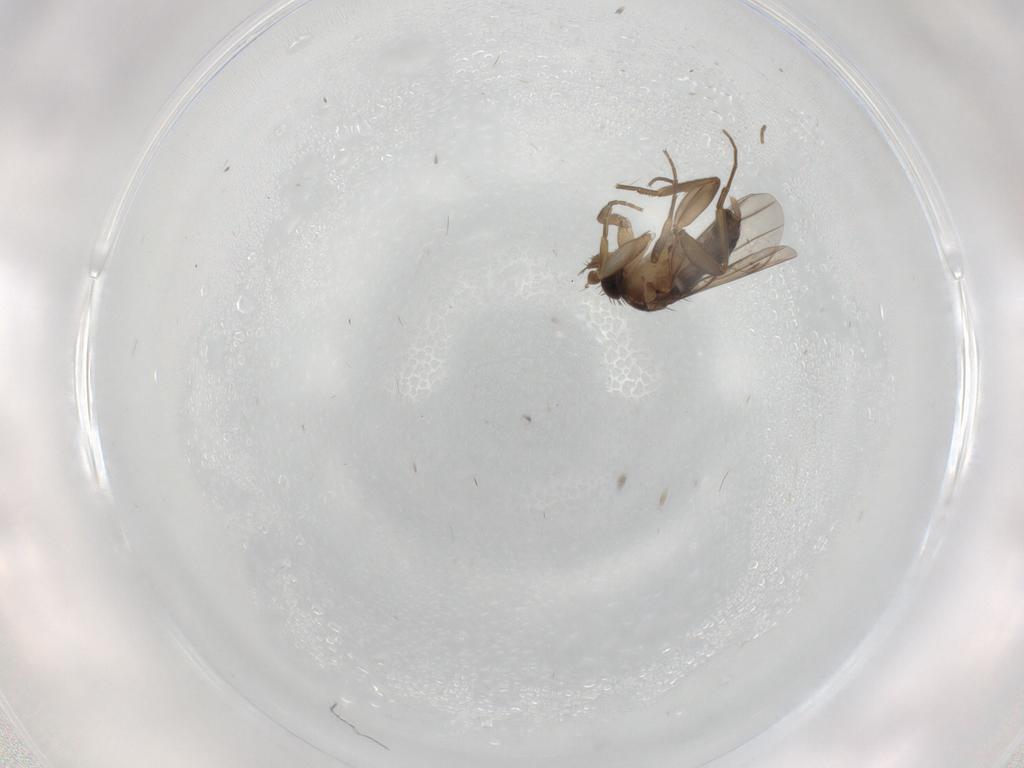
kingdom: Animalia
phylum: Arthropoda
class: Insecta
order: Diptera
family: Phoridae
